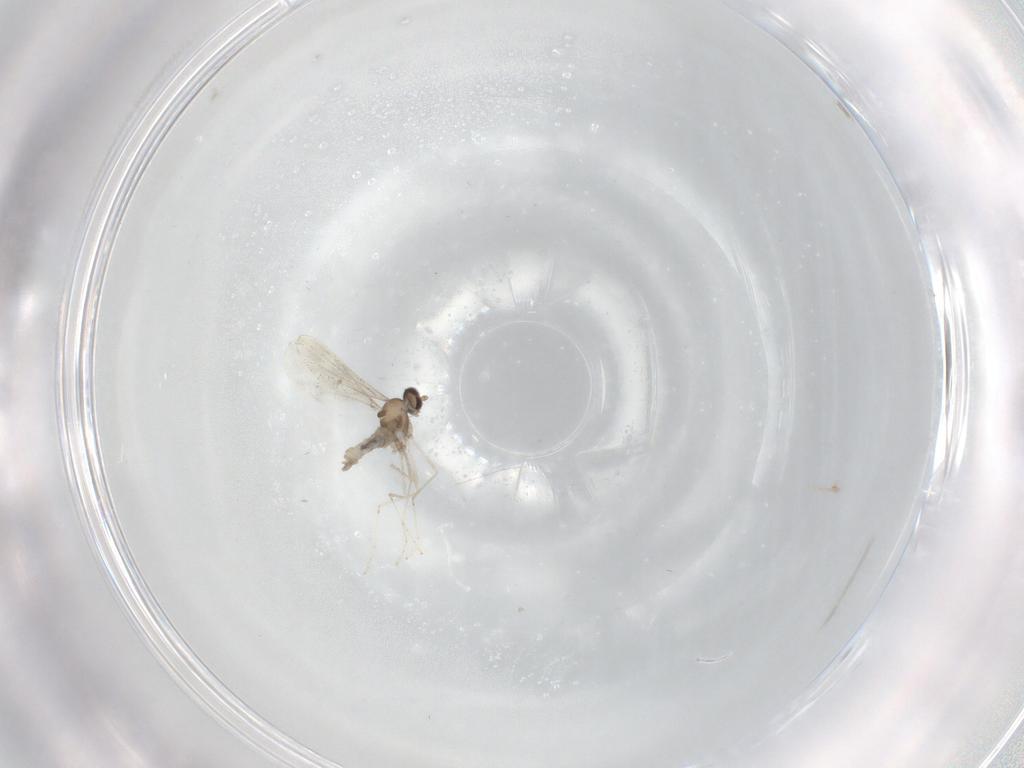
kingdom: Animalia
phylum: Arthropoda
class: Insecta
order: Diptera
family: Cecidomyiidae
